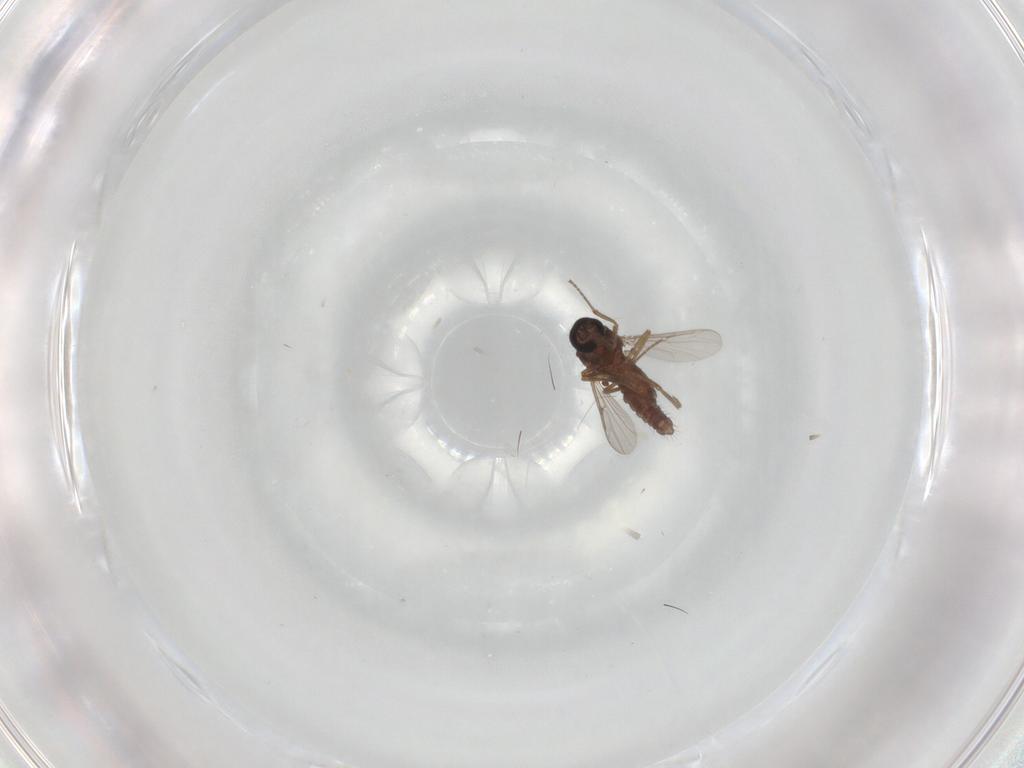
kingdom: Animalia
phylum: Arthropoda
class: Insecta
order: Diptera
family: Ceratopogonidae
